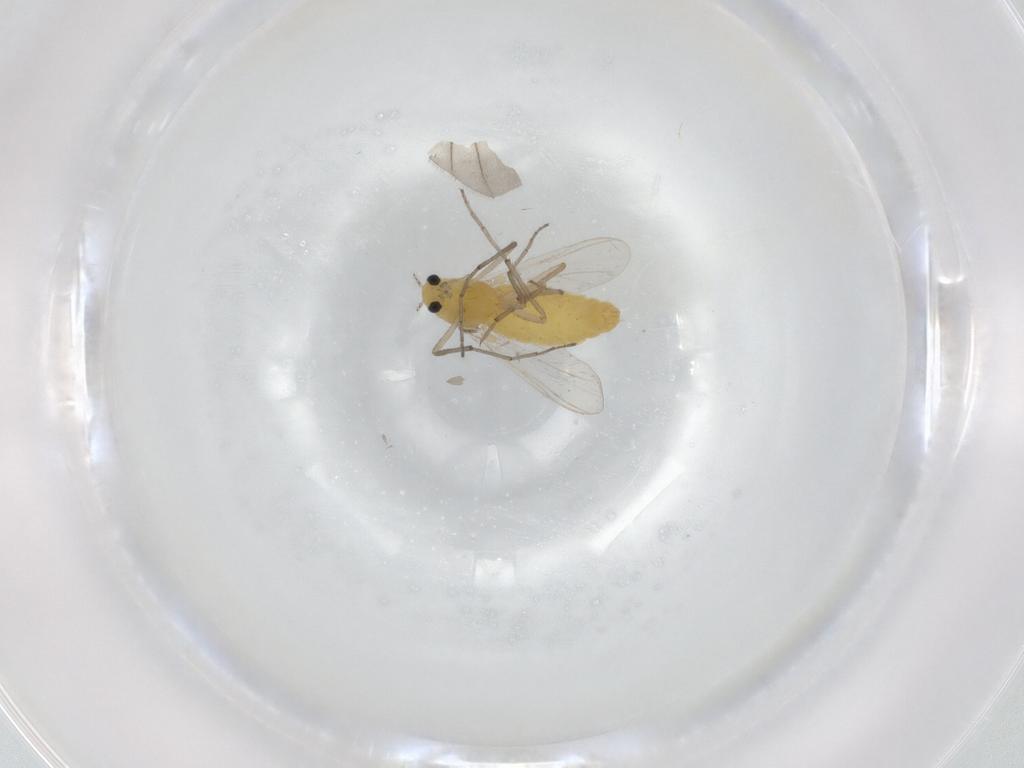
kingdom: Animalia
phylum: Arthropoda
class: Insecta
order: Diptera
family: Chironomidae
